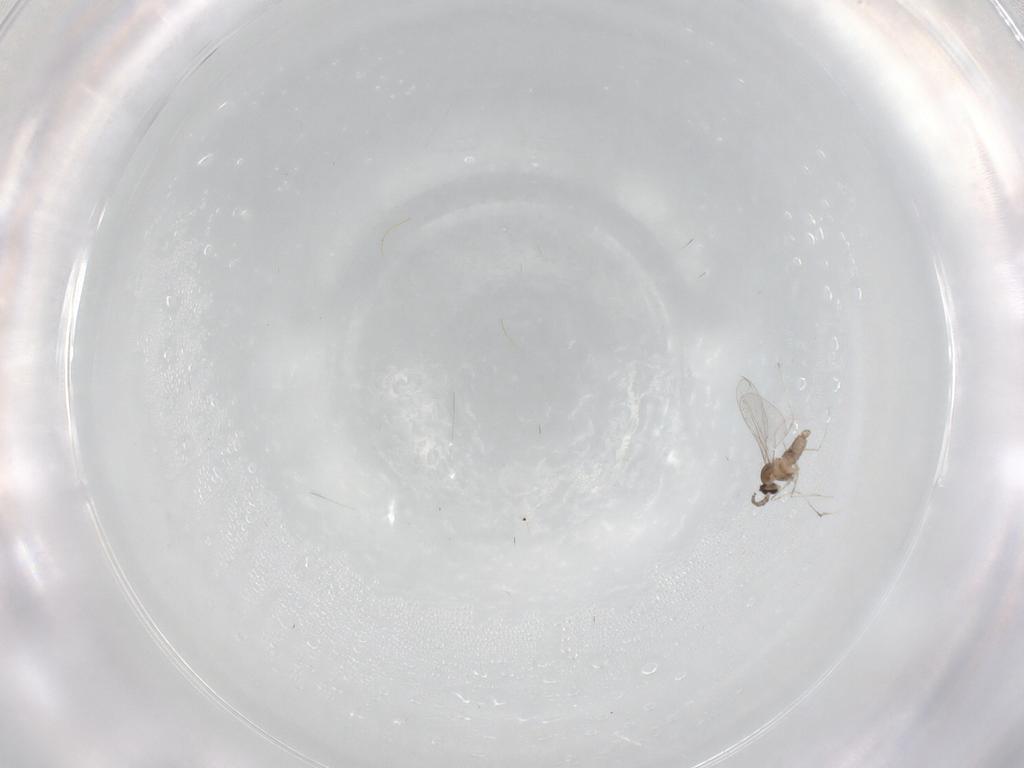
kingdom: Animalia
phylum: Arthropoda
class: Insecta
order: Diptera
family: Cecidomyiidae
